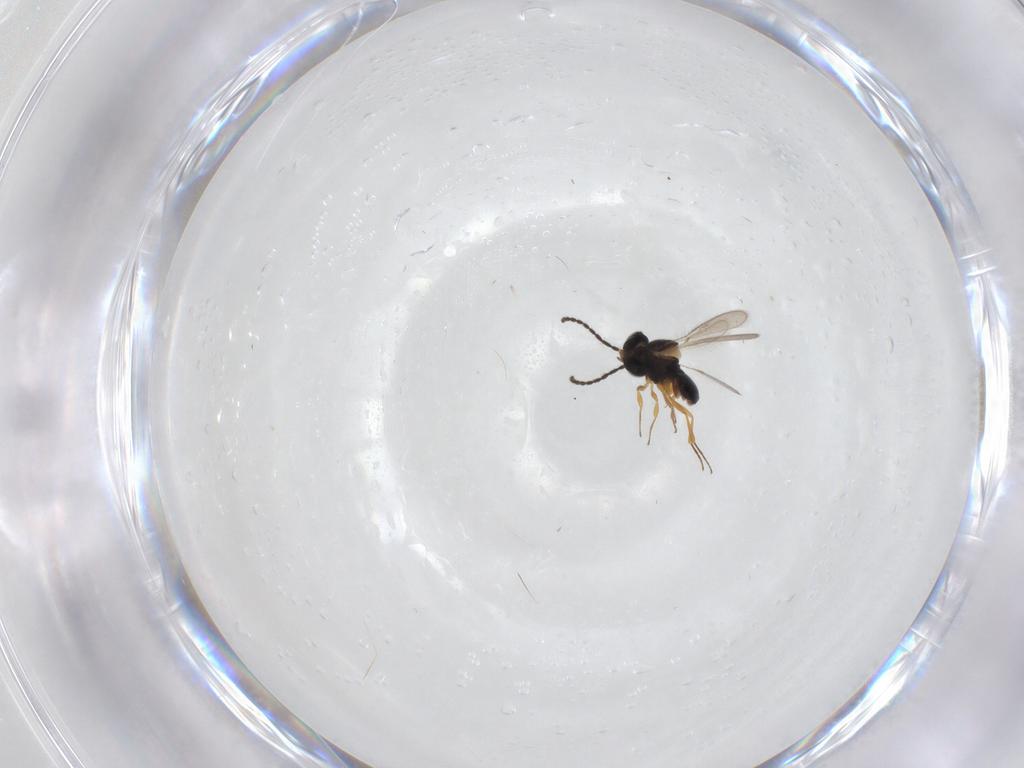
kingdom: Animalia
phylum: Arthropoda
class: Insecta
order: Hymenoptera
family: Scelionidae
